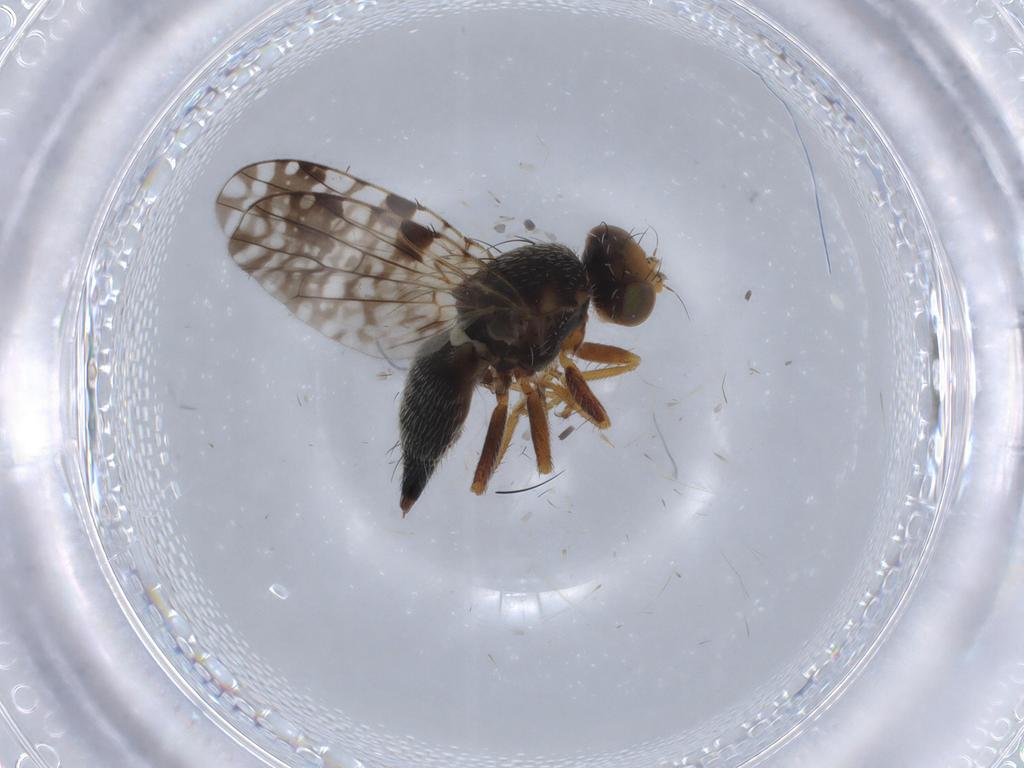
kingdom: Animalia
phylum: Arthropoda
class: Insecta
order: Diptera
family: Tephritidae
